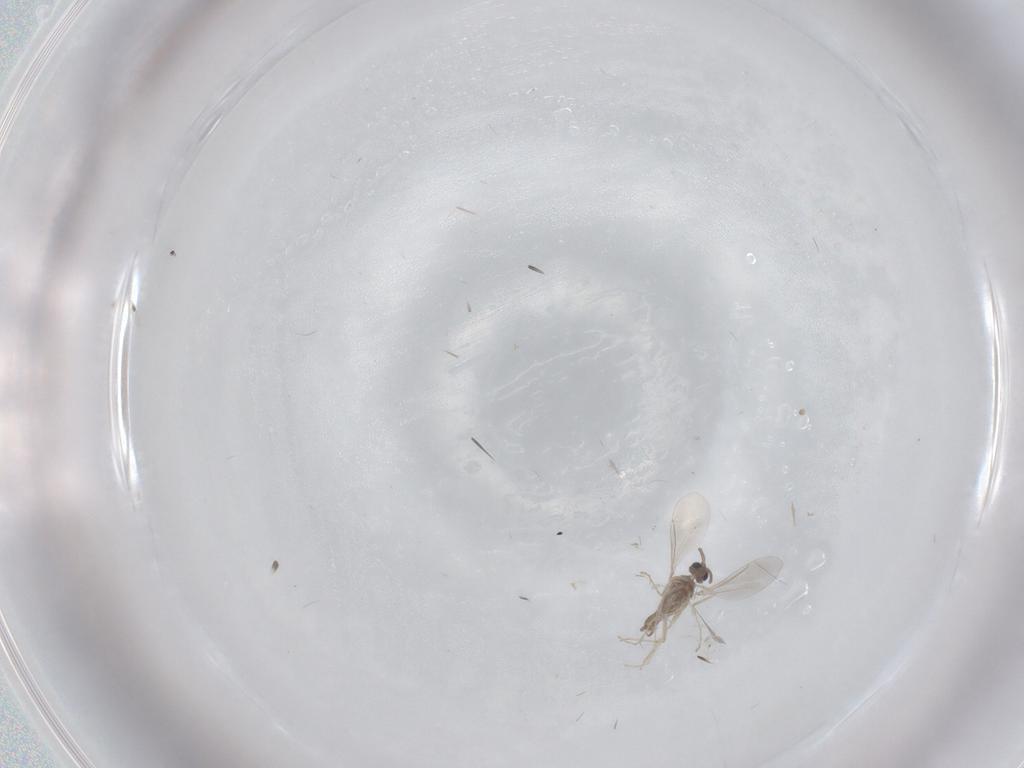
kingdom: Animalia
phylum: Arthropoda
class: Insecta
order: Diptera
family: Cecidomyiidae
